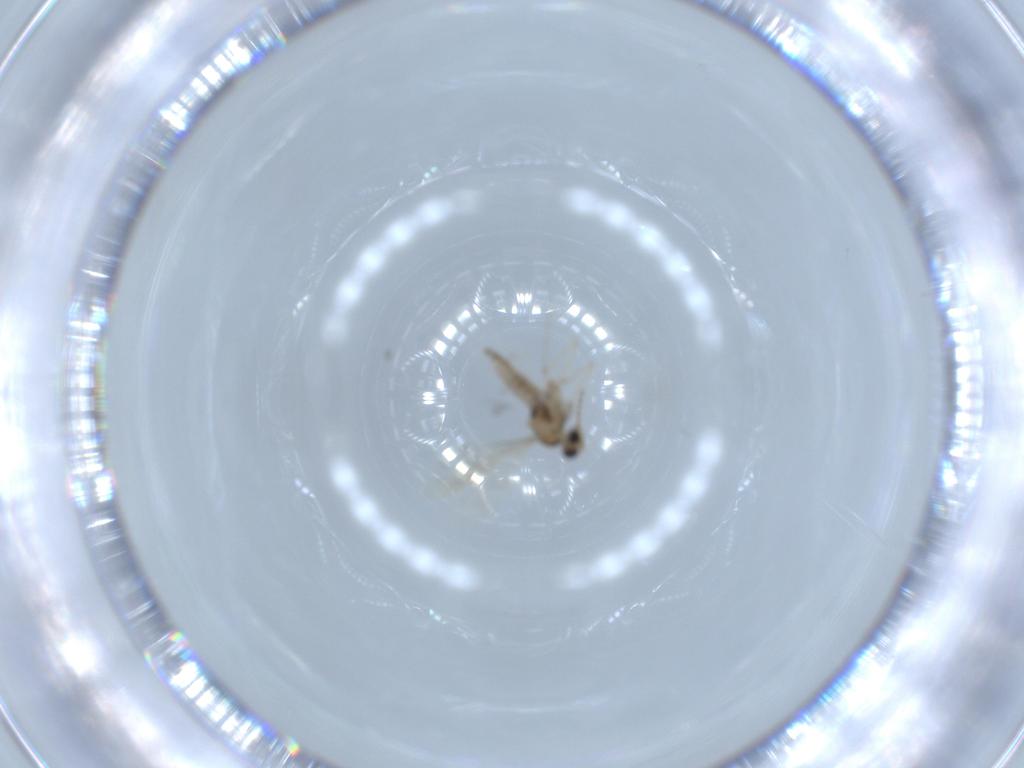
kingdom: Animalia
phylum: Arthropoda
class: Insecta
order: Diptera
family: Cecidomyiidae
